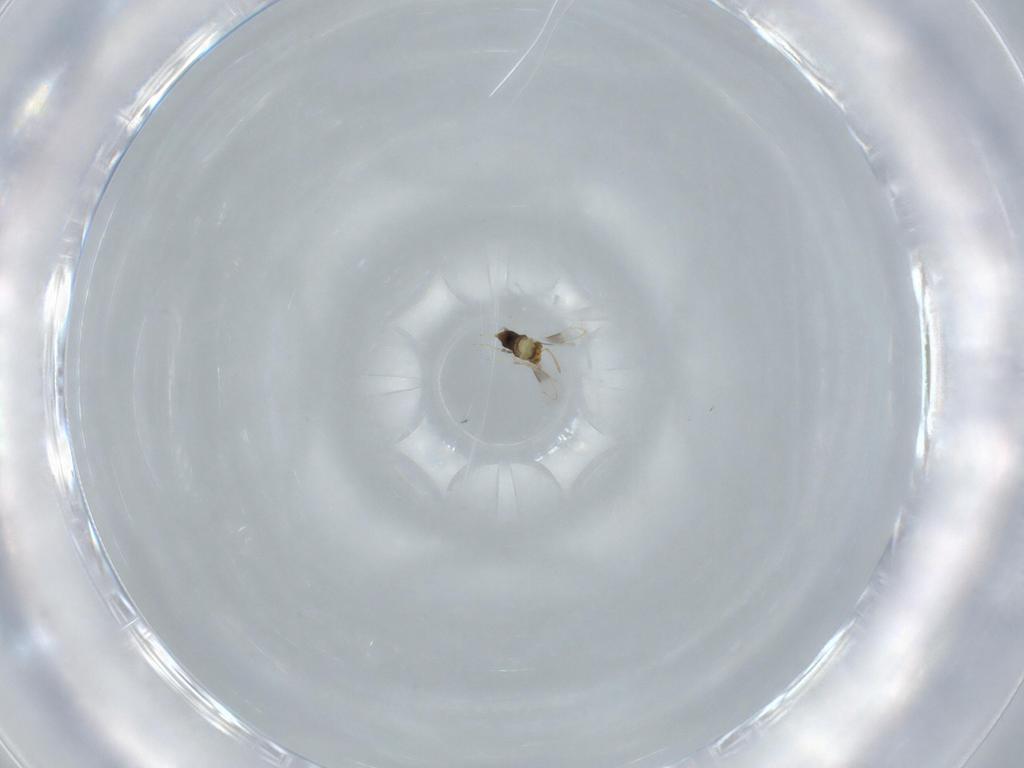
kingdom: Animalia
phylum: Arthropoda
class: Insecta
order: Hymenoptera
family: Aphelinidae
